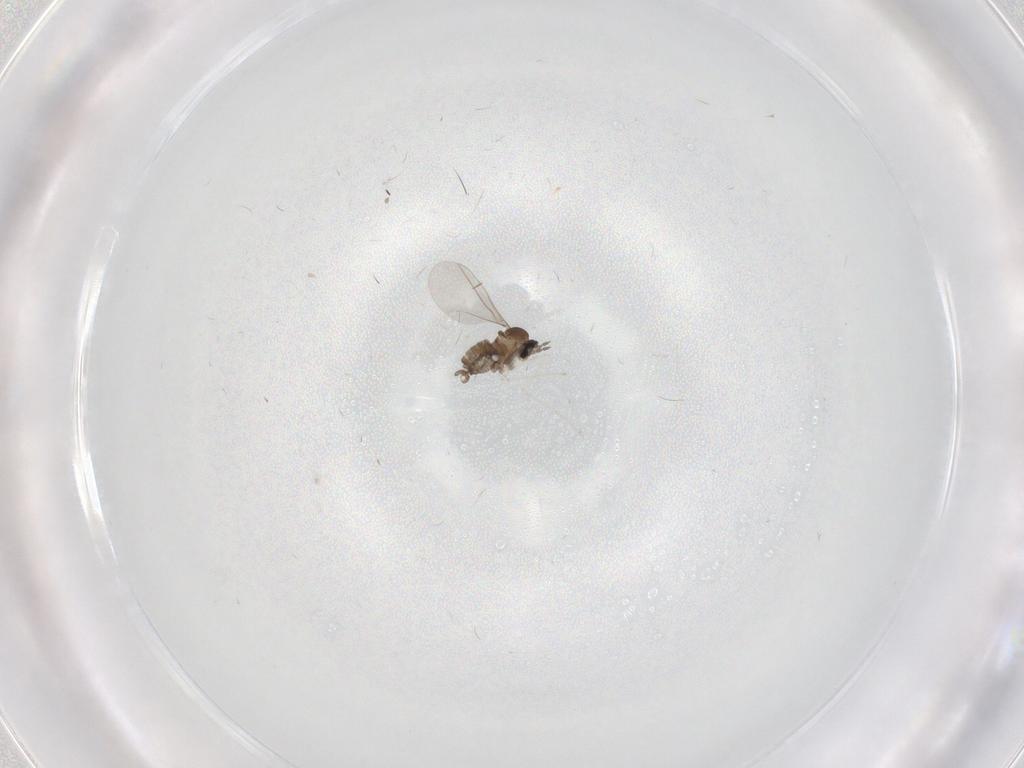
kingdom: Animalia
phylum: Arthropoda
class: Insecta
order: Diptera
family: Cecidomyiidae
